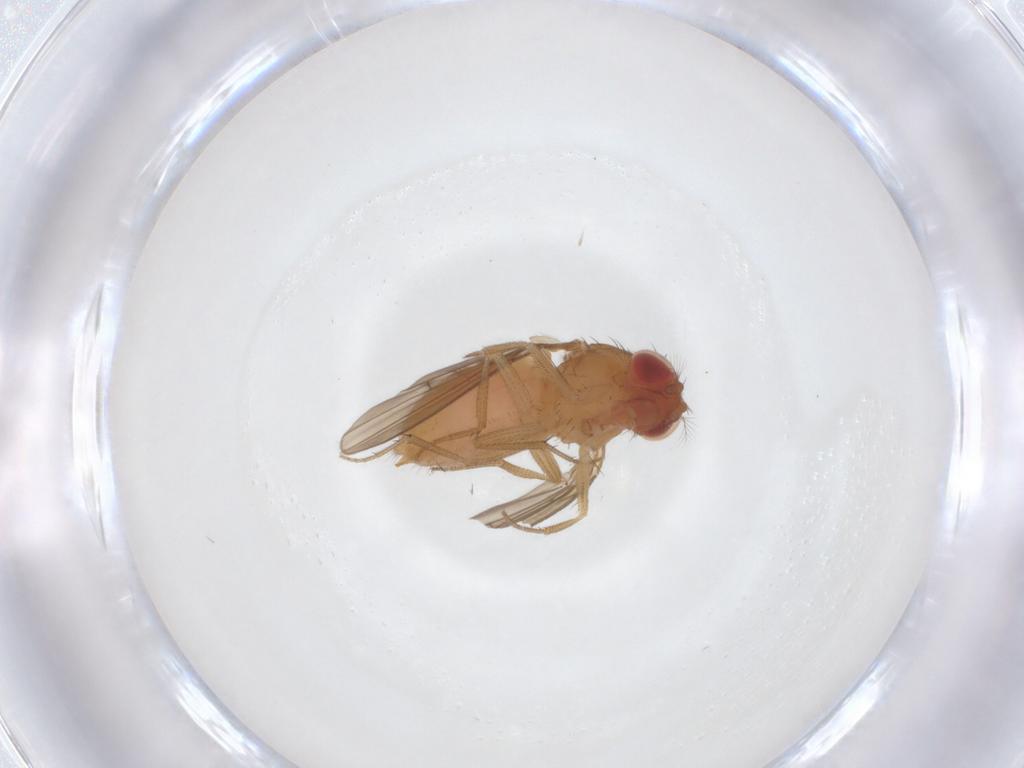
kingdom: Animalia
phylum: Arthropoda
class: Insecta
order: Diptera
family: Drosophilidae
